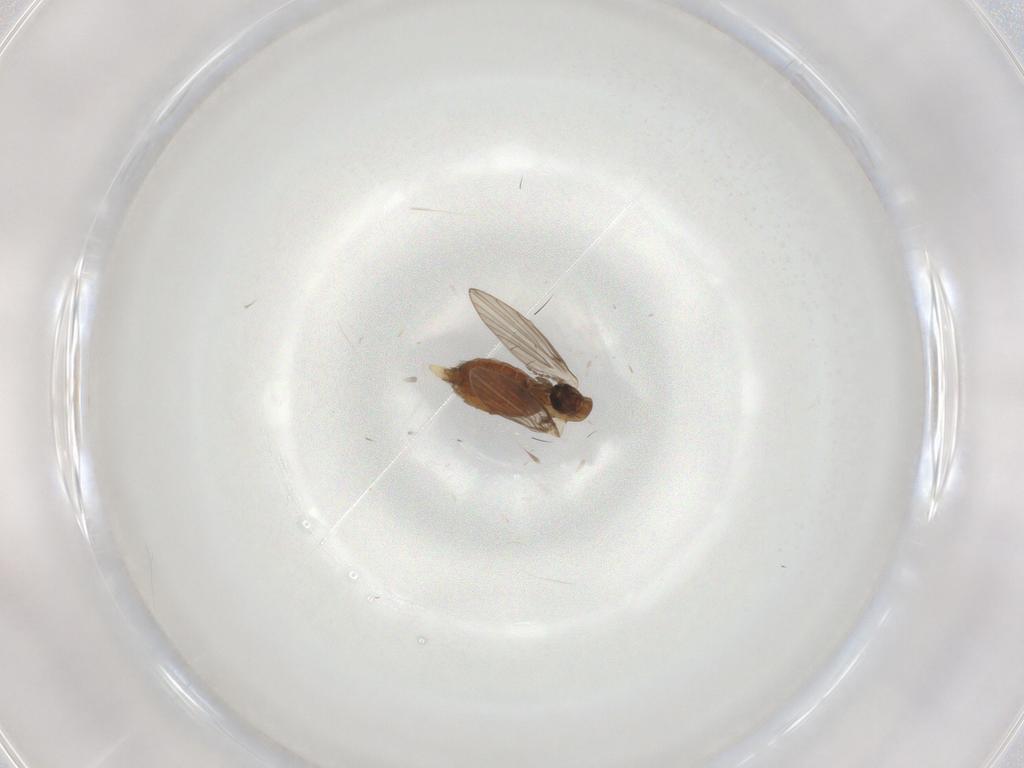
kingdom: Animalia
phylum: Arthropoda
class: Insecta
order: Diptera
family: Psychodidae
